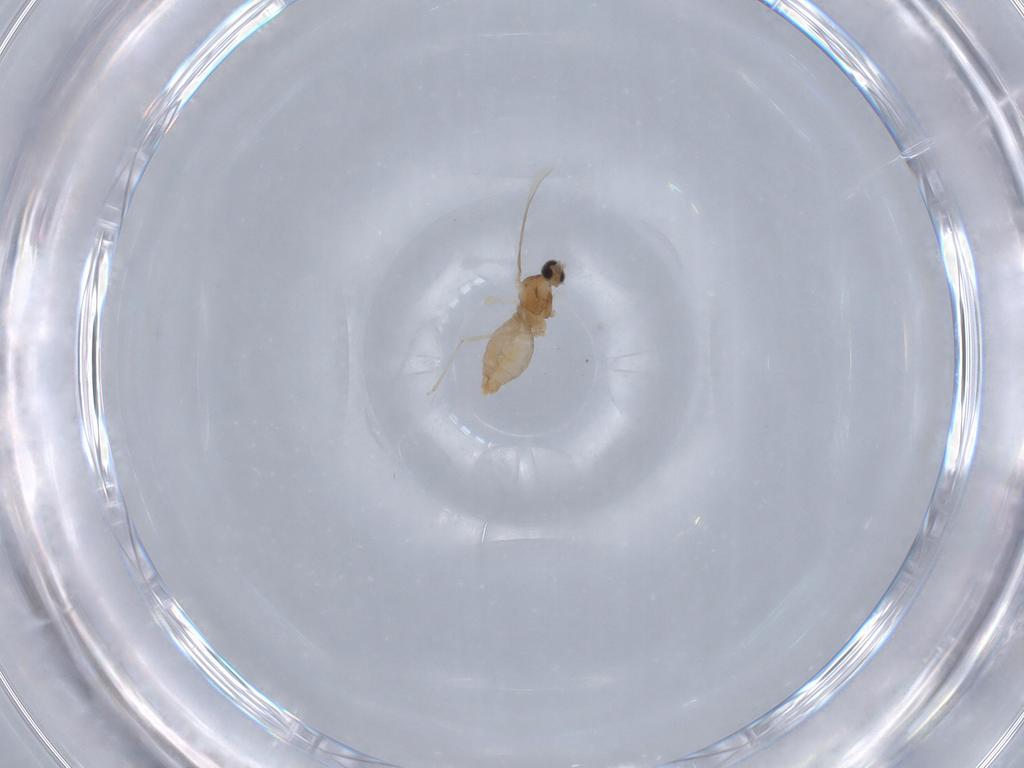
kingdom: Animalia
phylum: Arthropoda
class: Insecta
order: Diptera
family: Cecidomyiidae
